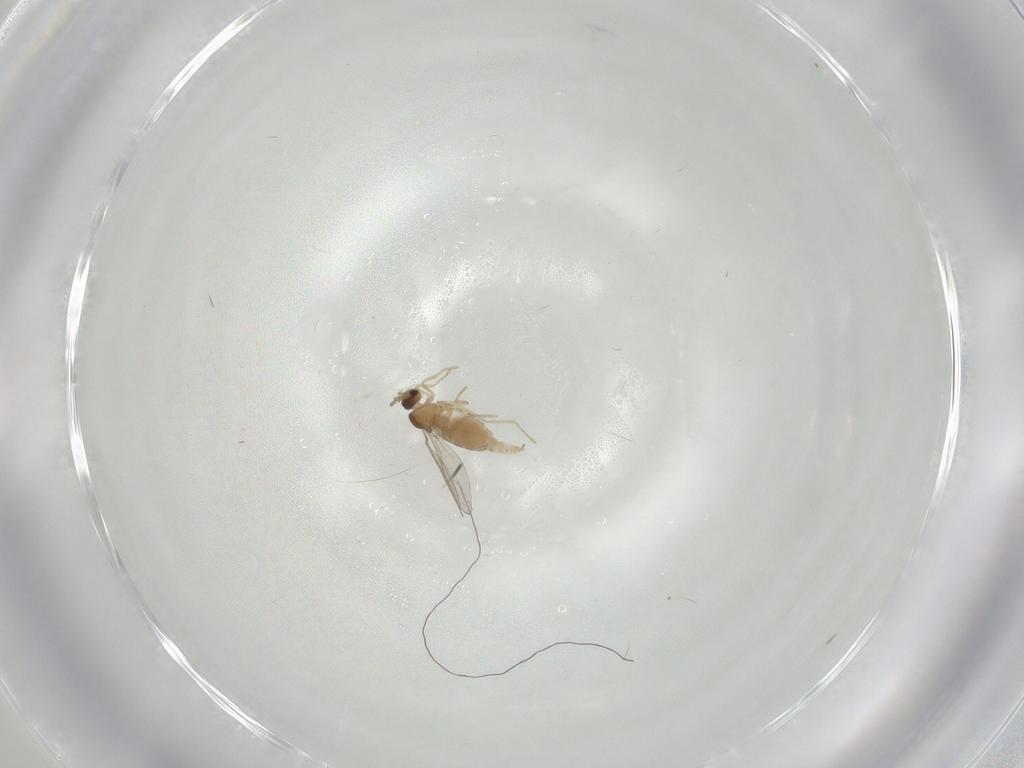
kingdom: Animalia
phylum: Arthropoda
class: Insecta
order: Diptera
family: Cecidomyiidae
